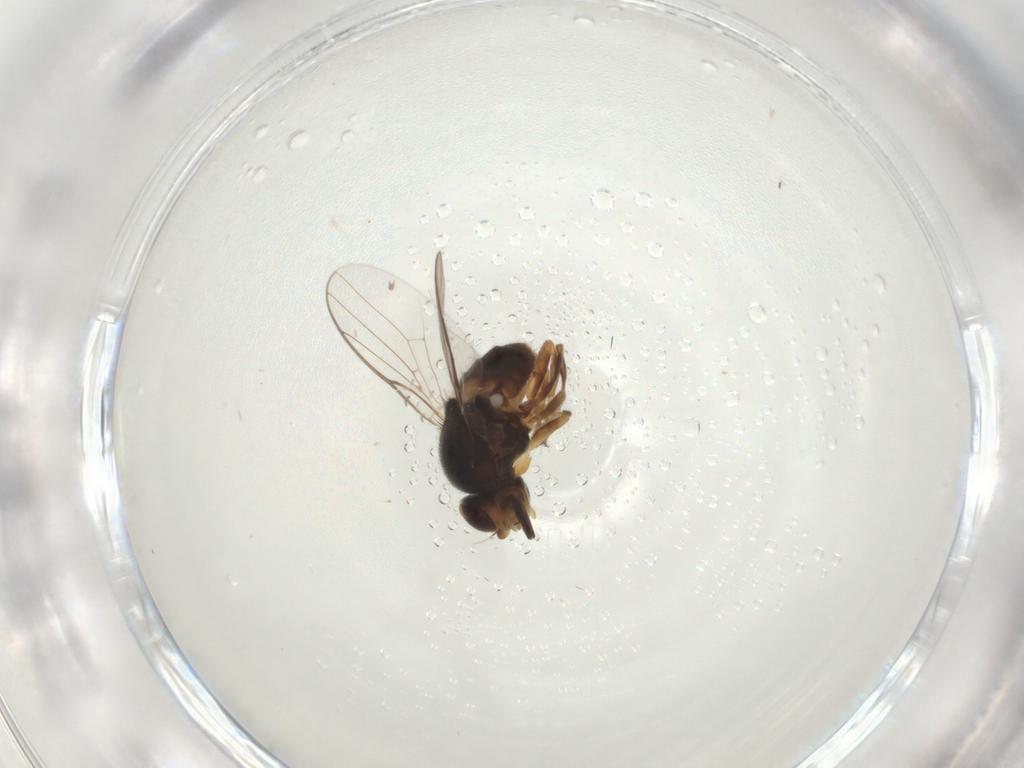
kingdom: Animalia
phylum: Arthropoda
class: Insecta
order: Diptera
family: Chloropidae
